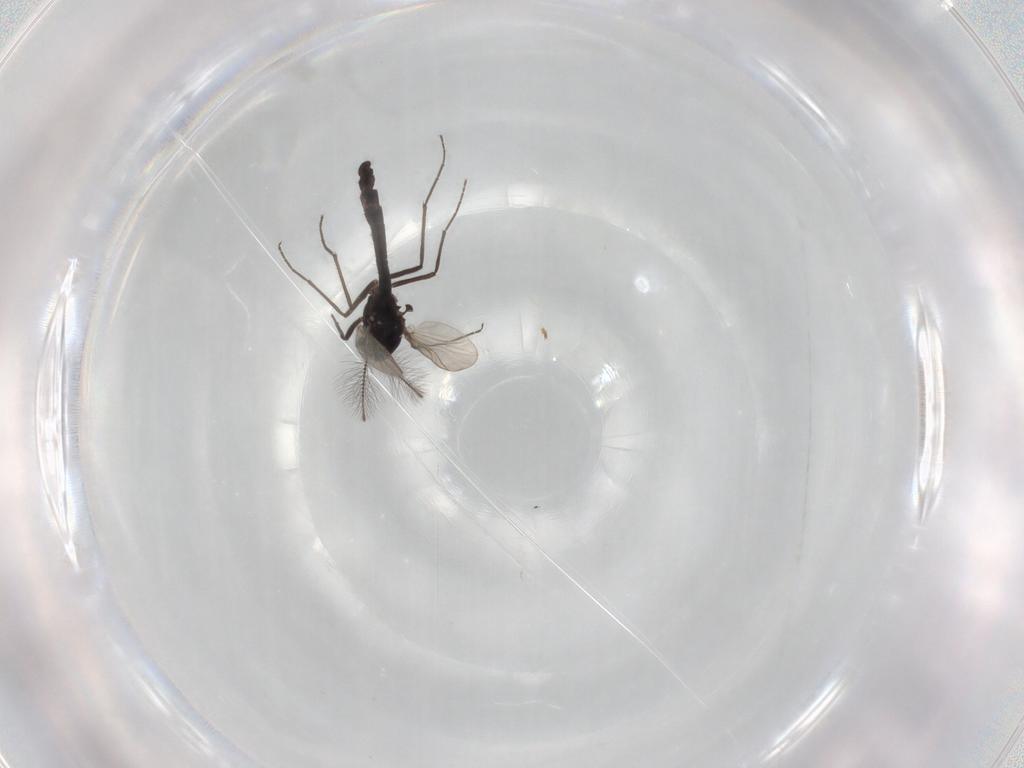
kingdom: Animalia
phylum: Arthropoda
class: Insecta
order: Diptera
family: Chironomidae
